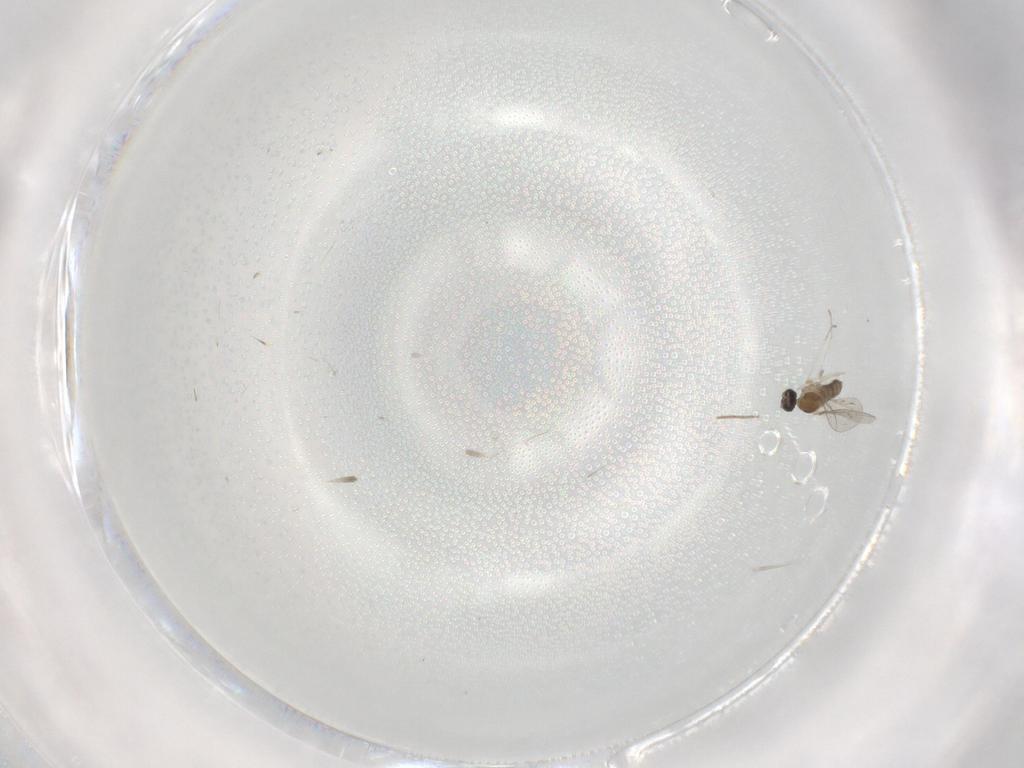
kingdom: Animalia
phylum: Arthropoda
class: Insecta
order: Diptera
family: Chironomidae
